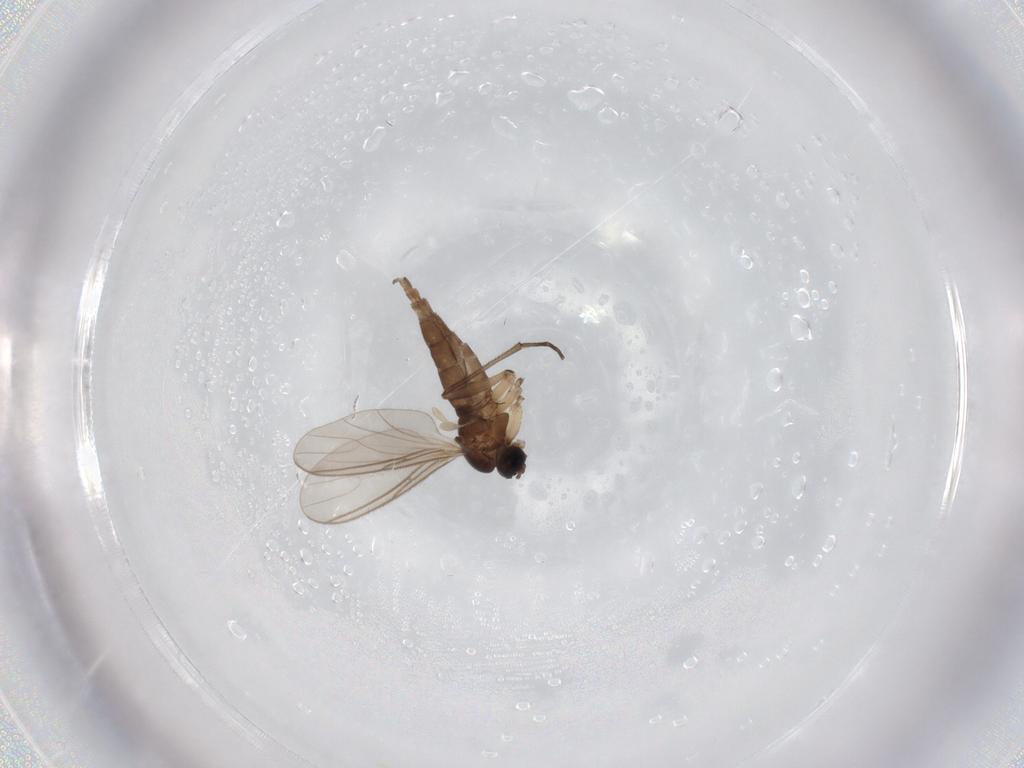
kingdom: Animalia
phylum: Arthropoda
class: Insecta
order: Diptera
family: Sciaridae
